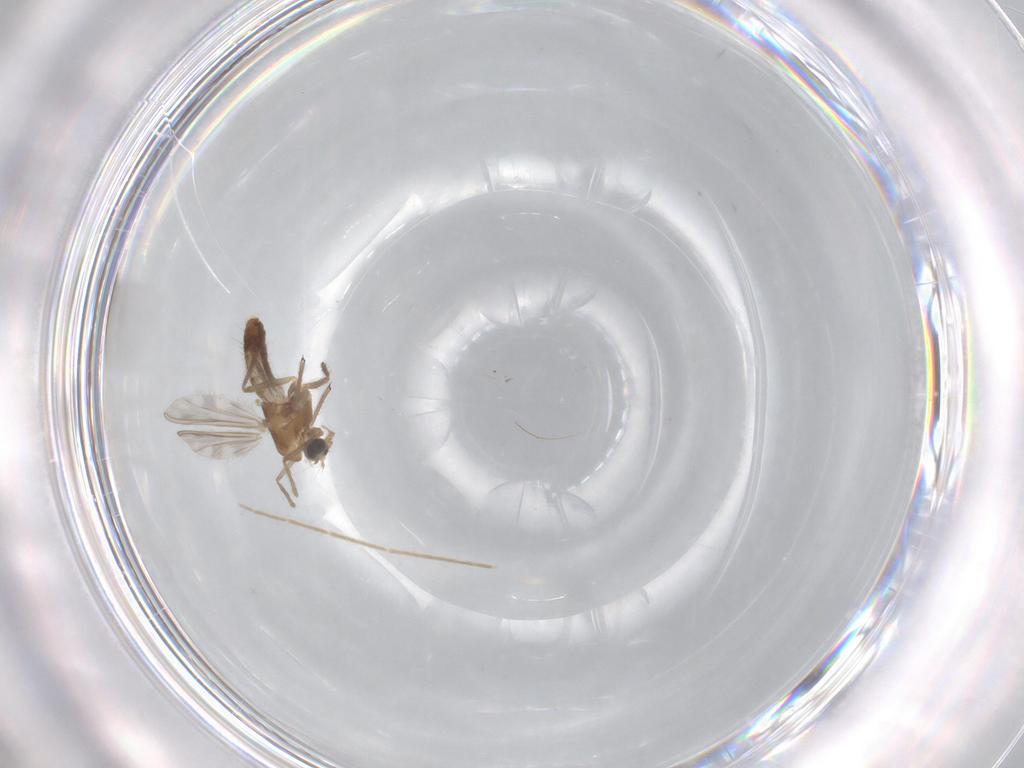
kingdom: Animalia
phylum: Arthropoda
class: Insecta
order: Diptera
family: Chironomidae
